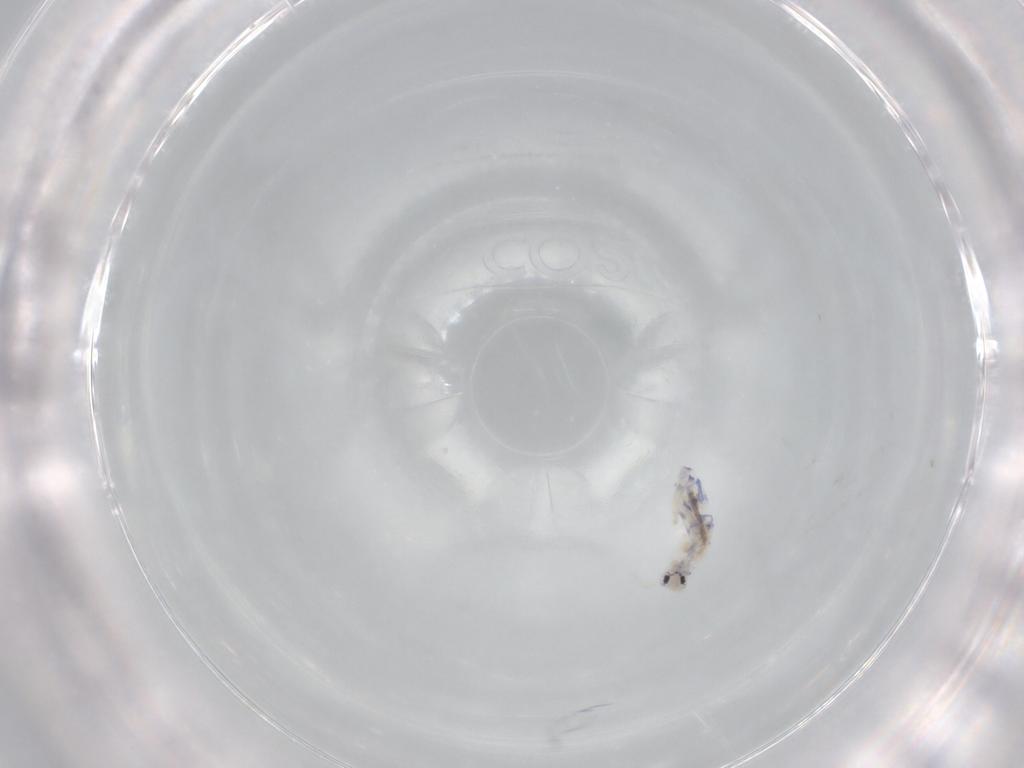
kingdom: Animalia
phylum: Arthropoda
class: Collembola
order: Entomobryomorpha
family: Entomobryidae
